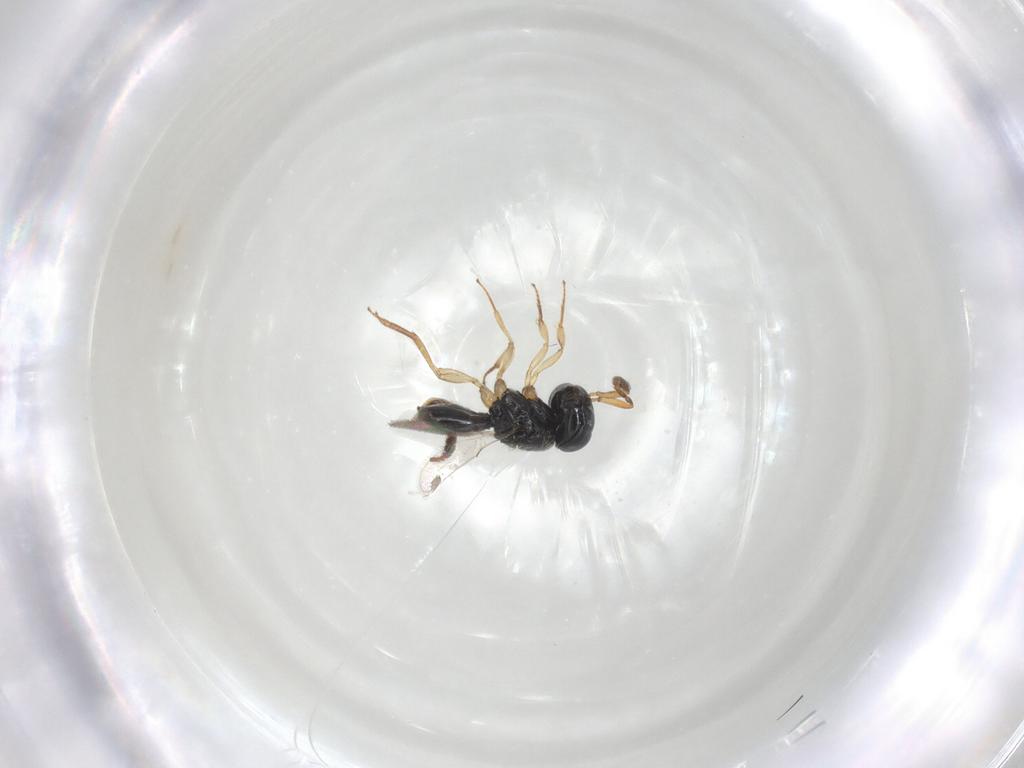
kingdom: Animalia
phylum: Arthropoda
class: Insecta
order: Hymenoptera
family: Scelionidae
